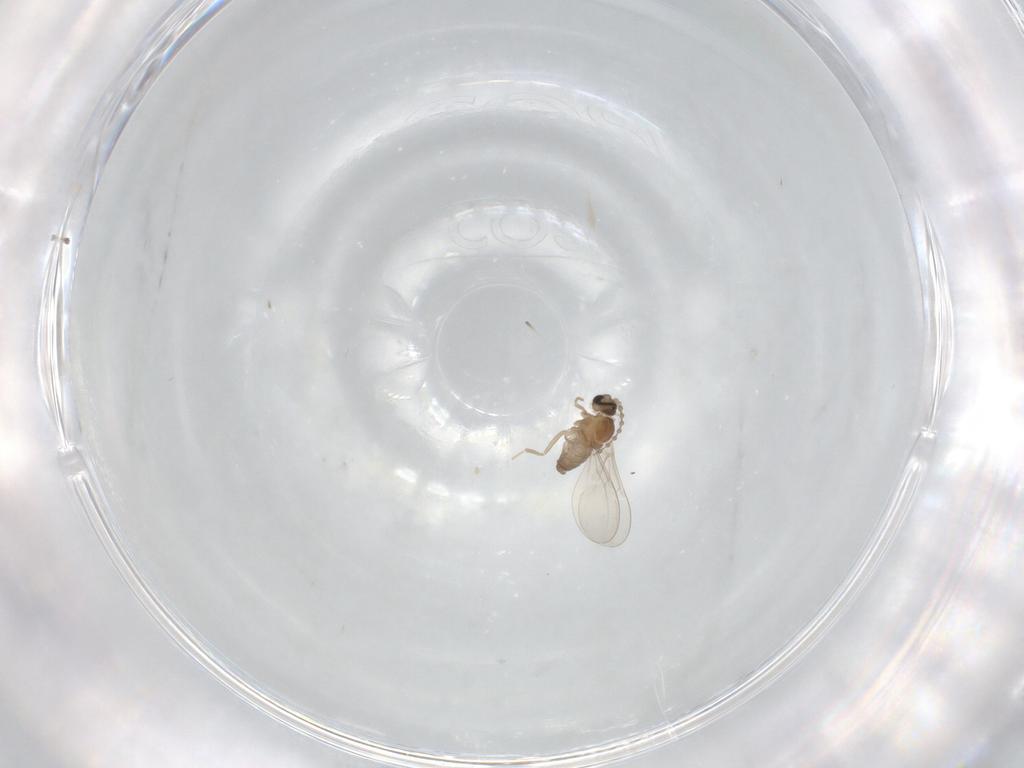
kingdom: Animalia
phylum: Arthropoda
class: Insecta
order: Diptera
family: Cecidomyiidae
